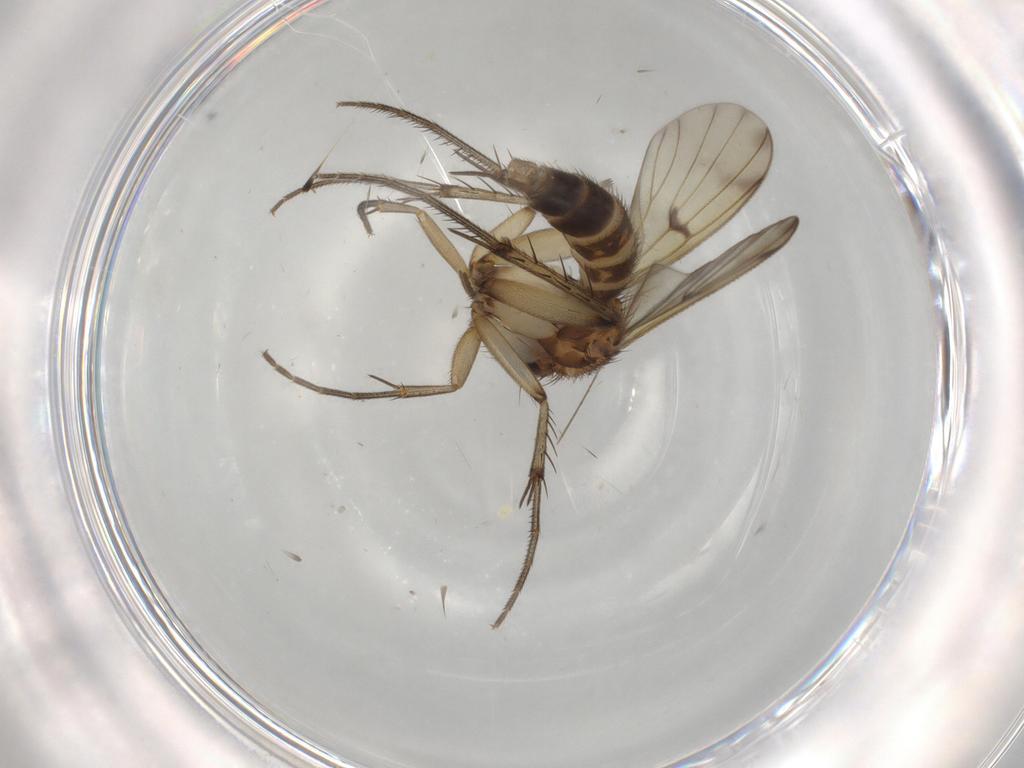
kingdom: Animalia
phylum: Arthropoda
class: Insecta
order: Diptera
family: Mycetophilidae
